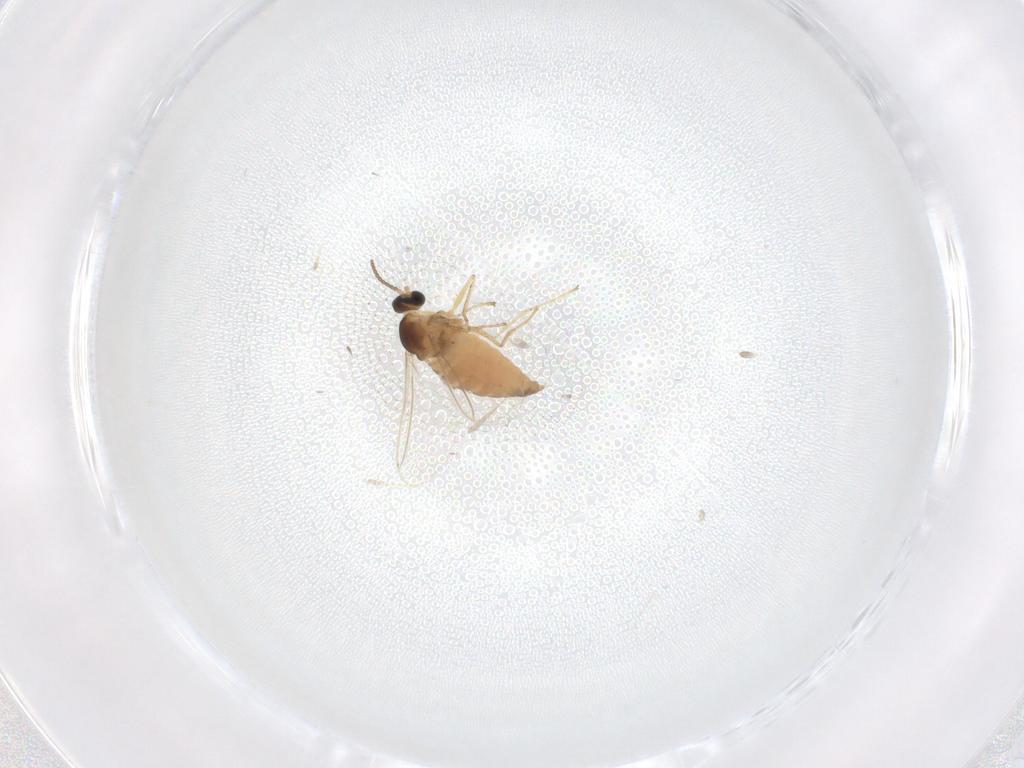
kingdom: Animalia
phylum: Arthropoda
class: Insecta
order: Diptera
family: Cecidomyiidae
